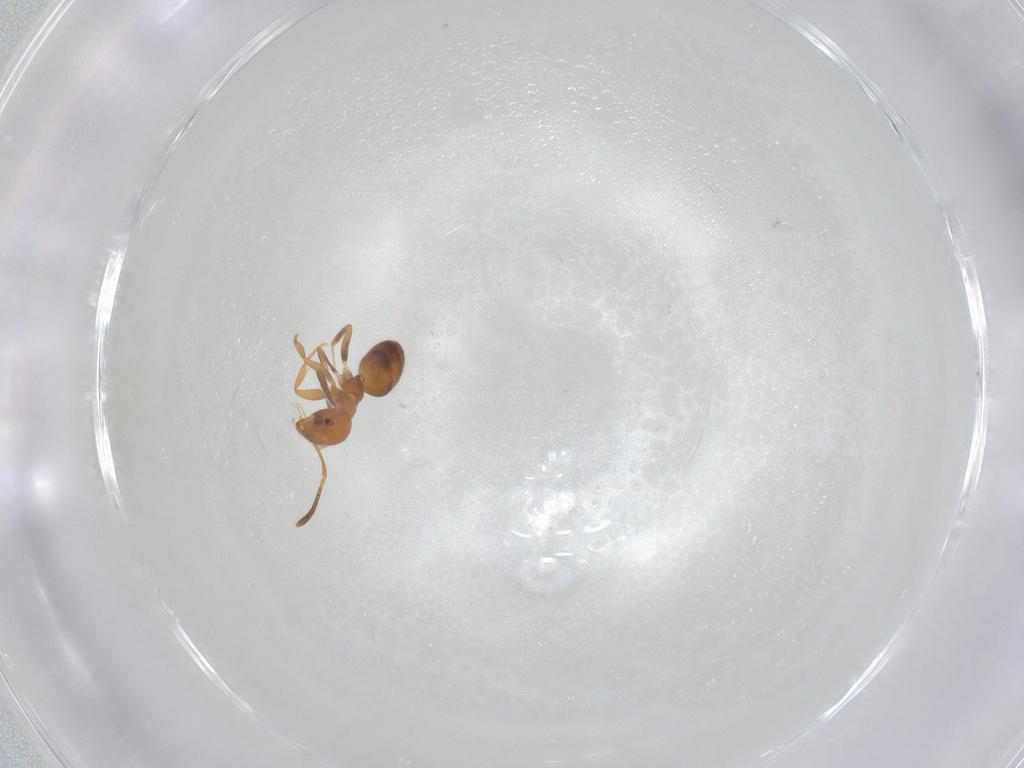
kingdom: Animalia
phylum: Arthropoda
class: Insecta
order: Hymenoptera
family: Formicidae
